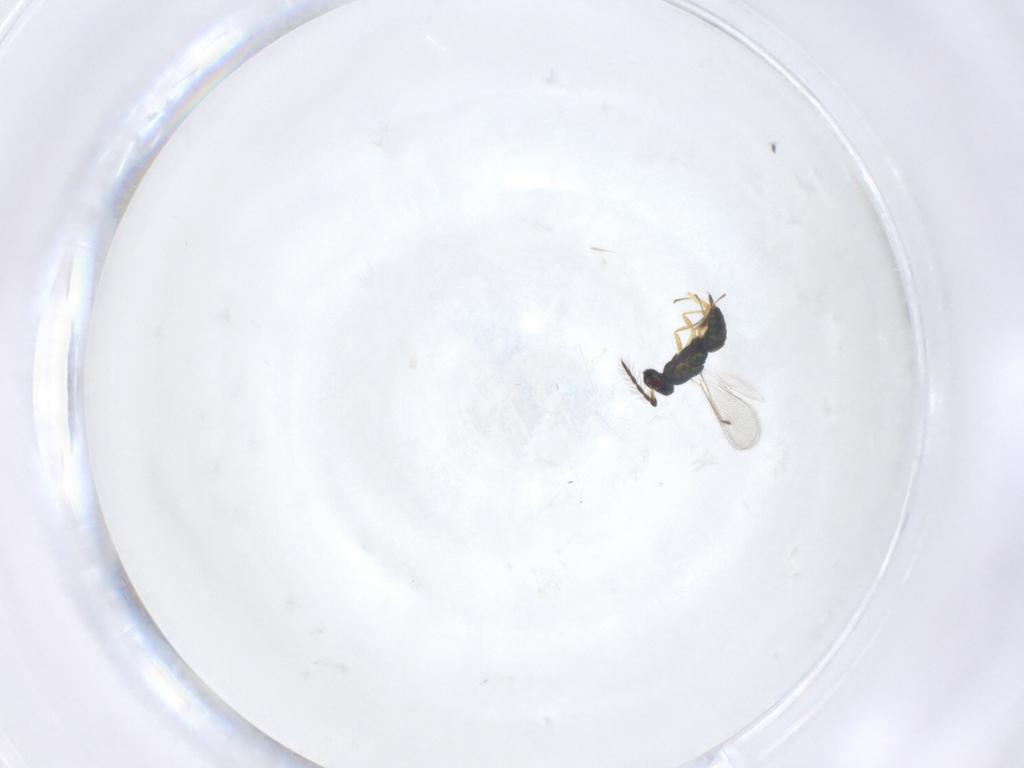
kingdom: Animalia
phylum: Arthropoda
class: Insecta
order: Hymenoptera
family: Eulophidae
